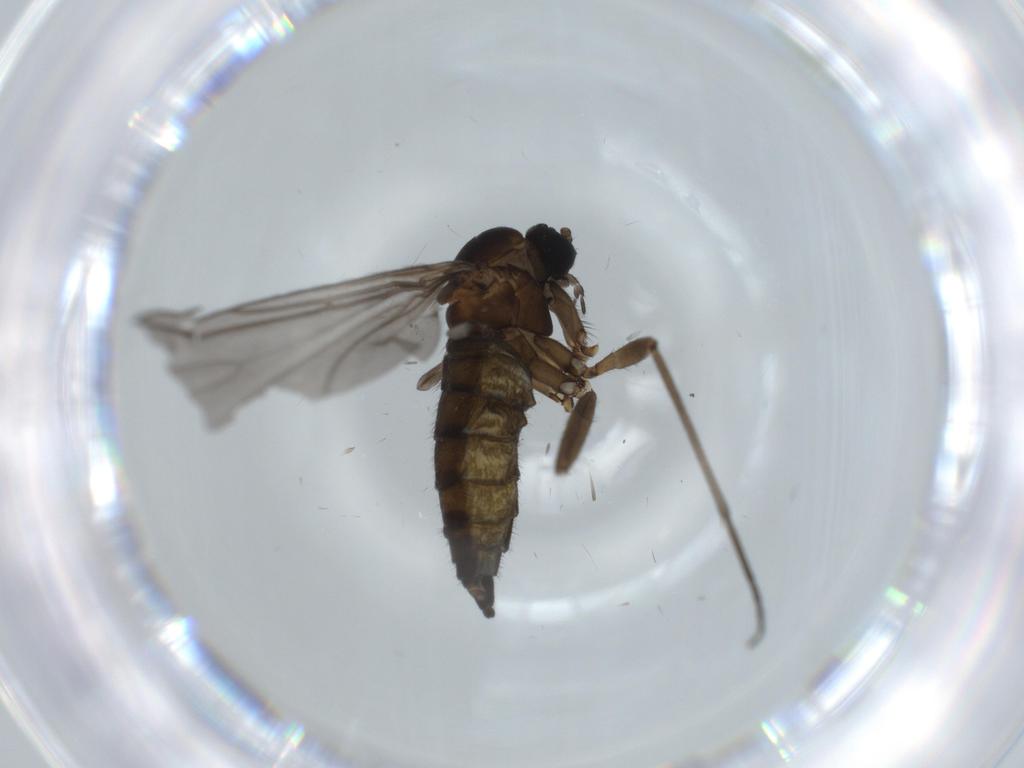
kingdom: Animalia
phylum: Arthropoda
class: Insecta
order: Diptera
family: Sciaridae
